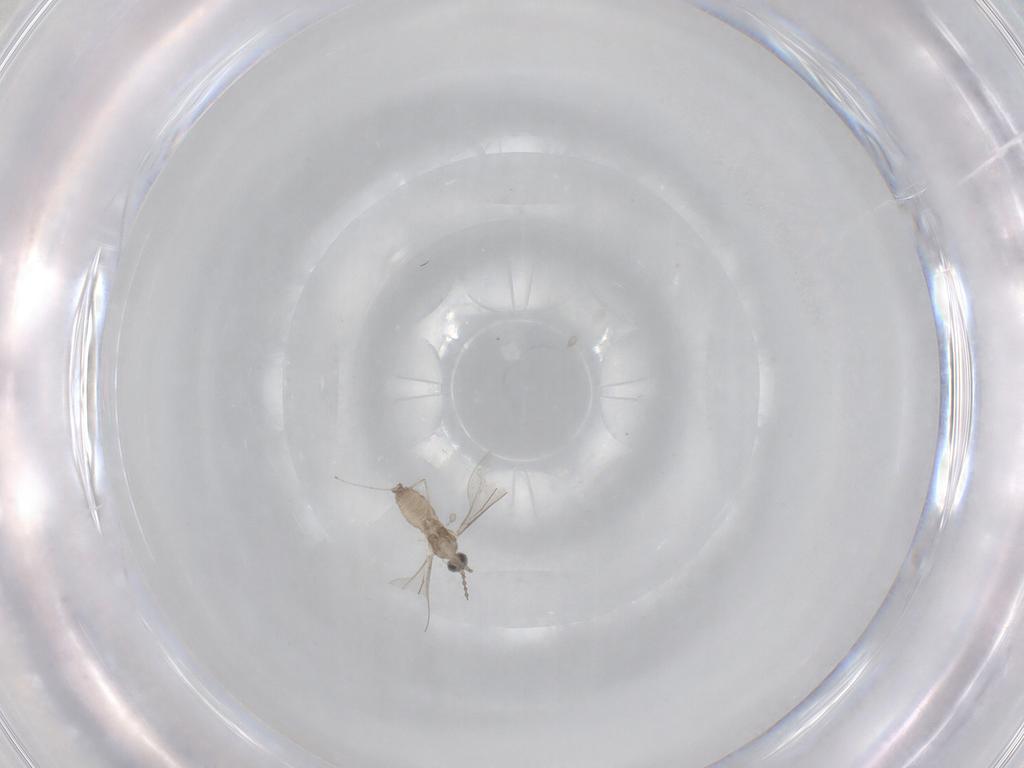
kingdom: Animalia
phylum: Arthropoda
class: Insecta
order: Diptera
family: Cecidomyiidae
